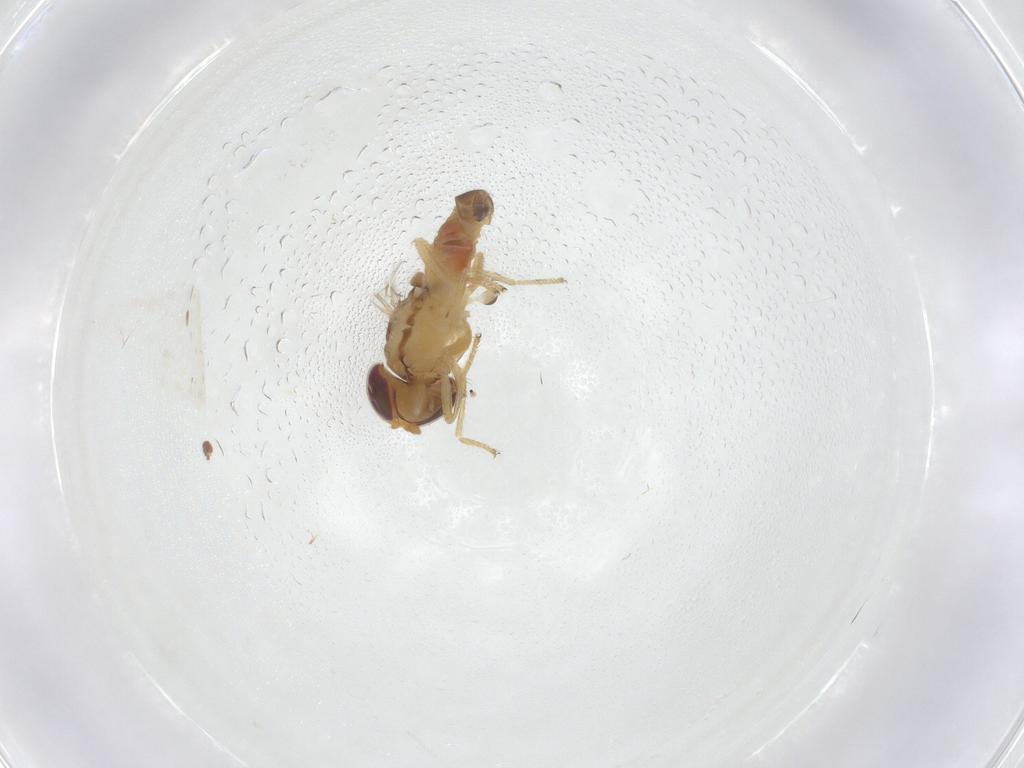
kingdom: Animalia
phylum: Arthropoda
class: Insecta
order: Diptera
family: Asteiidae
